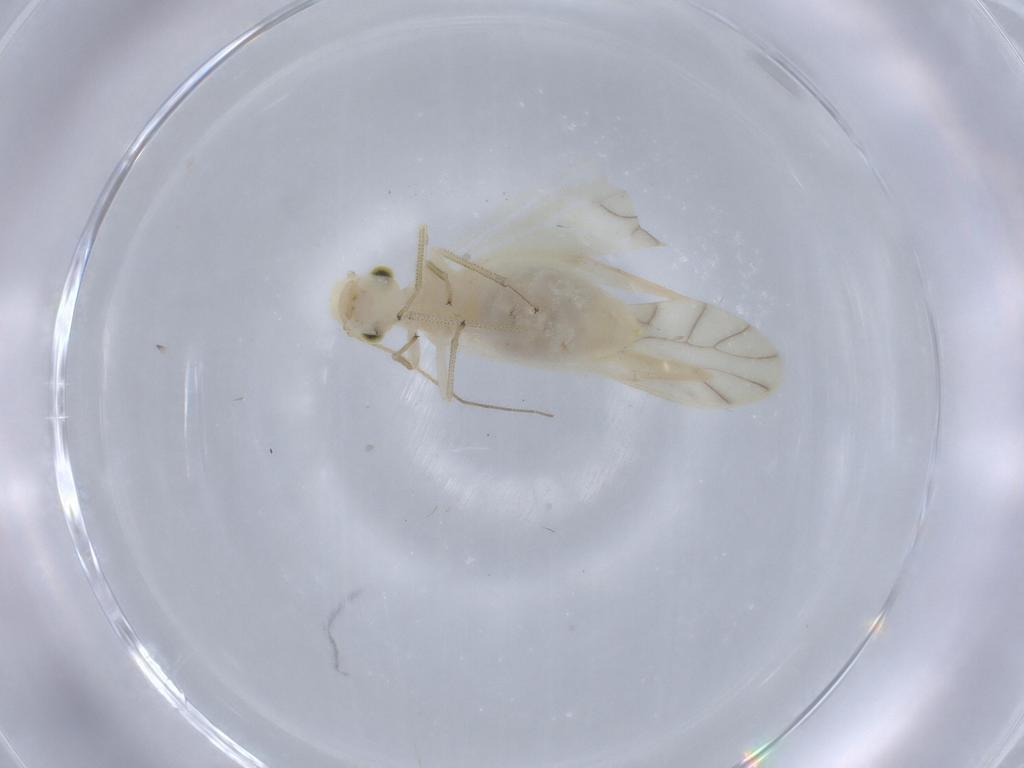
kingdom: Animalia
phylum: Arthropoda
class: Insecta
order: Psocodea
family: Caeciliusidae
